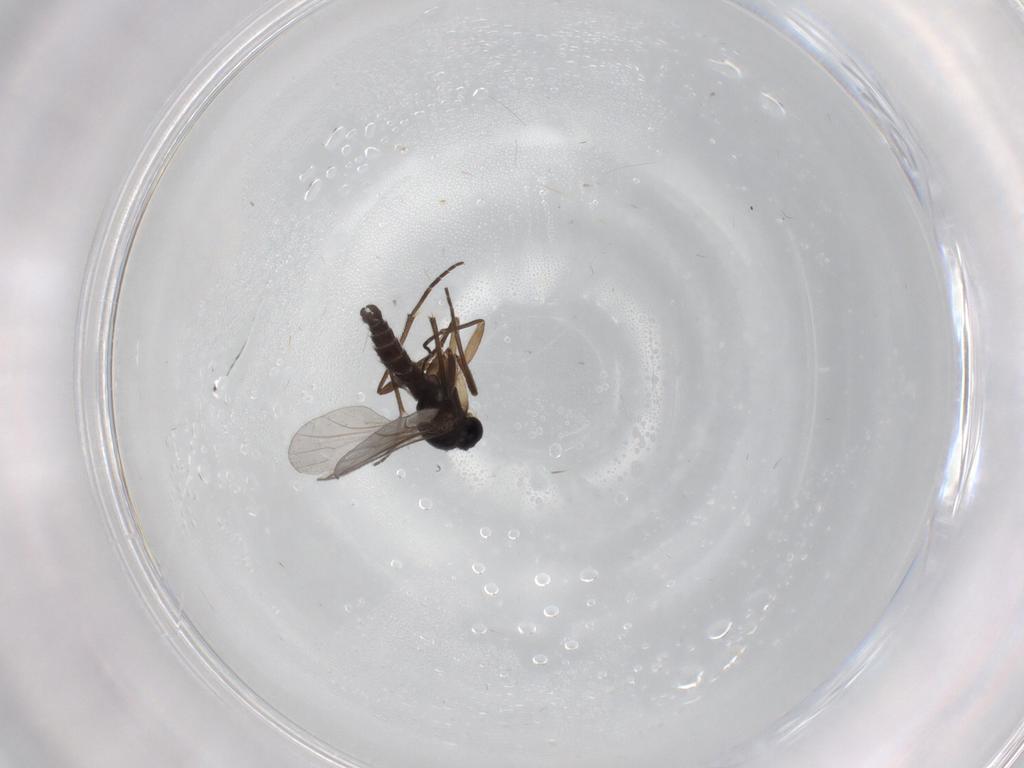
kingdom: Animalia
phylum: Arthropoda
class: Insecta
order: Diptera
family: Sciaridae
